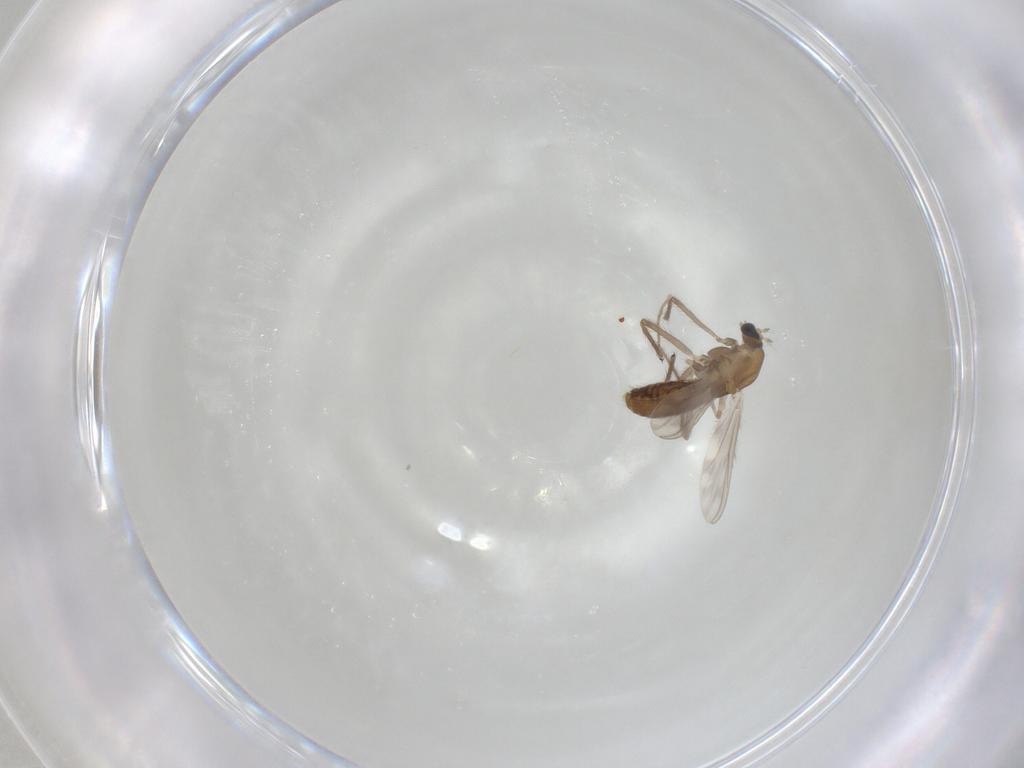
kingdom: Animalia
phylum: Arthropoda
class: Insecta
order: Diptera
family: Chironomidae
